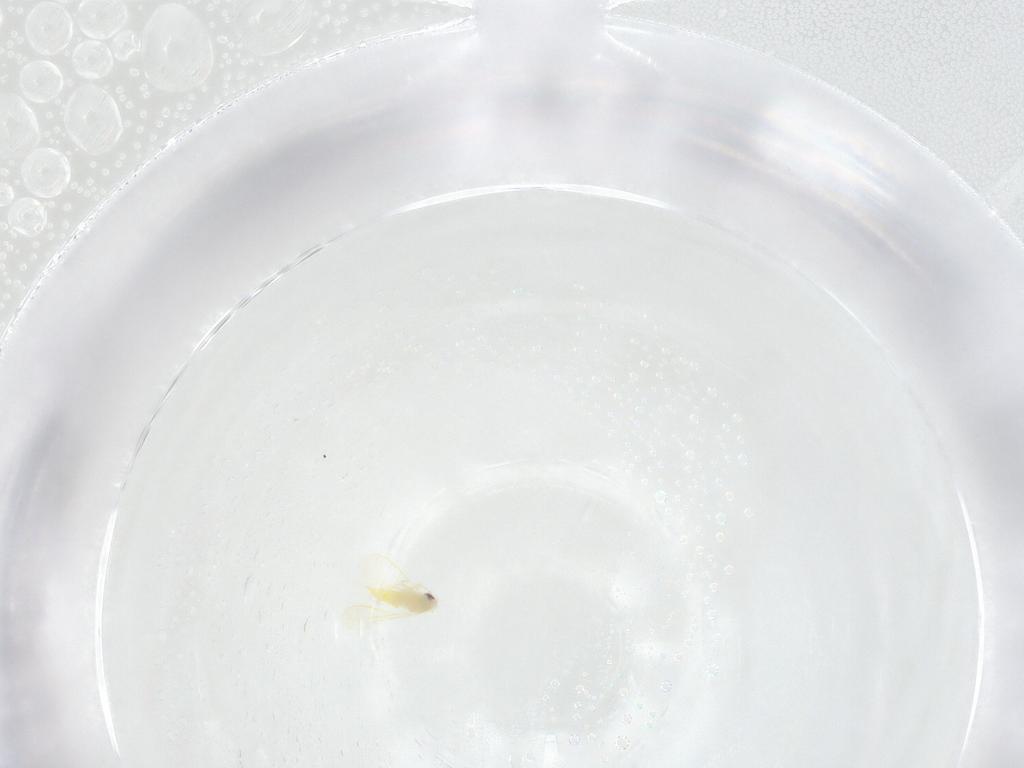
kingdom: Animalia
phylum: Arthropoda
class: Insecta
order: Hemiptera
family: Aleyrodidae
